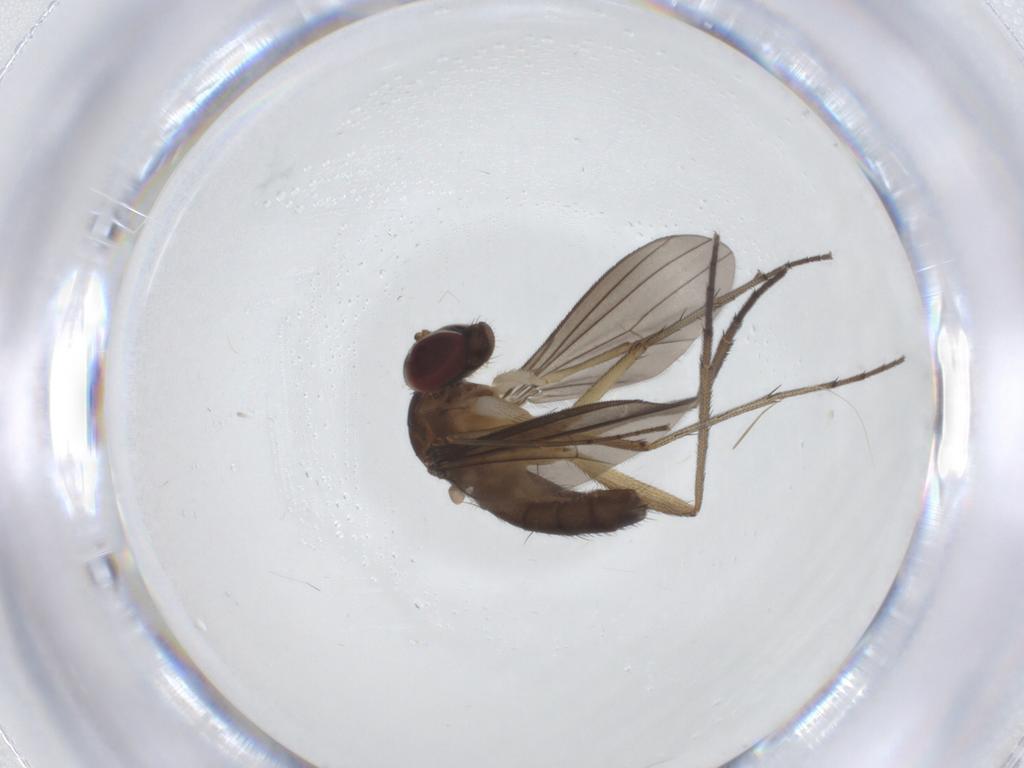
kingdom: Animalia
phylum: Arthropoda
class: Insecta
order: Diptera
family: Dolichopodidae
